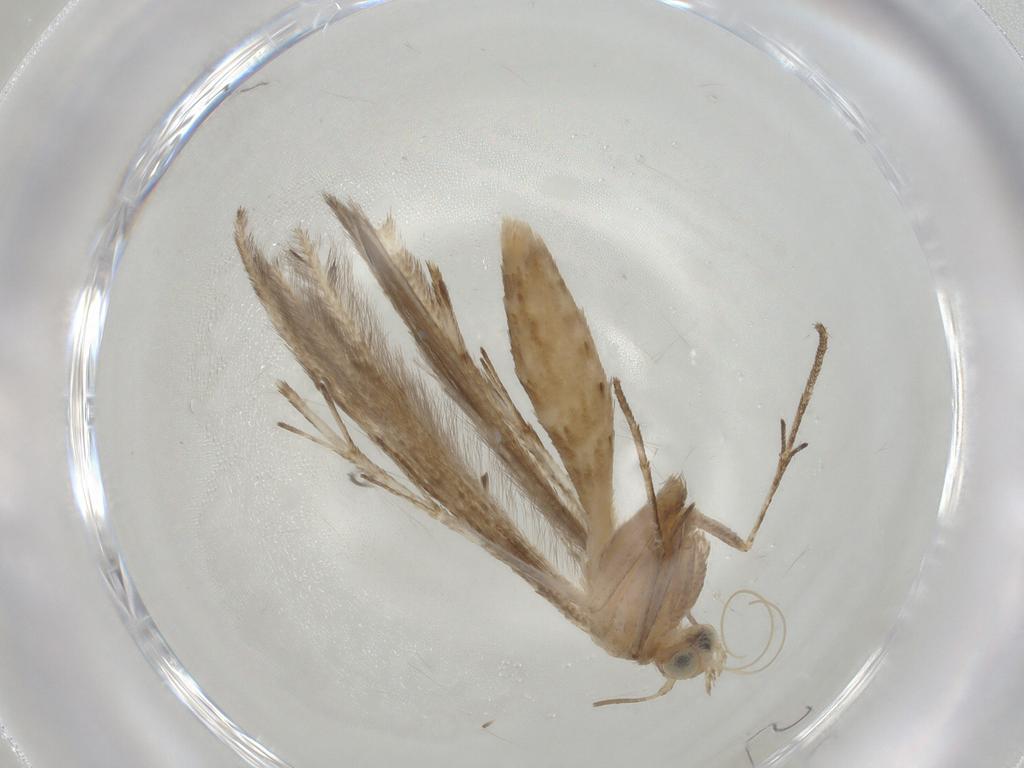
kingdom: Animalia
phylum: Arthropoda
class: Insecta
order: Lepidoptera
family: Pterophoridae
